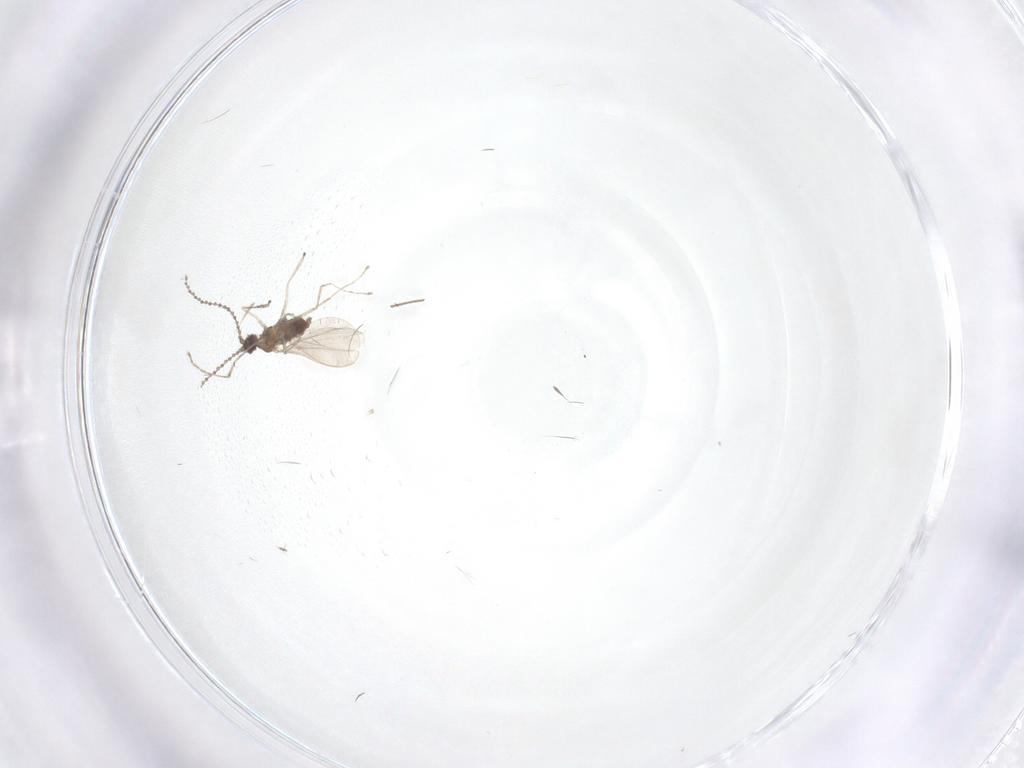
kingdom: Animalia
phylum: Arthropoda
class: Insecta
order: Diptera
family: Cecidomyiidae
